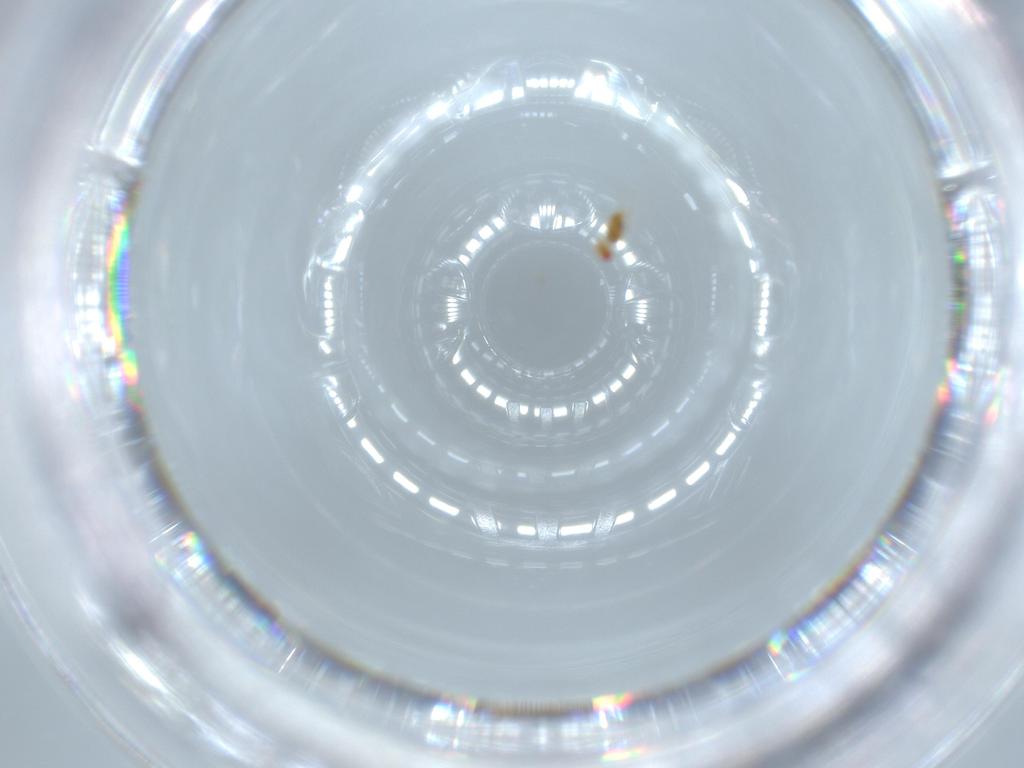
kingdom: Animalia
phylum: Arthropoda
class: Insecta
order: Hymenoptera
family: Trichogrammatidae
